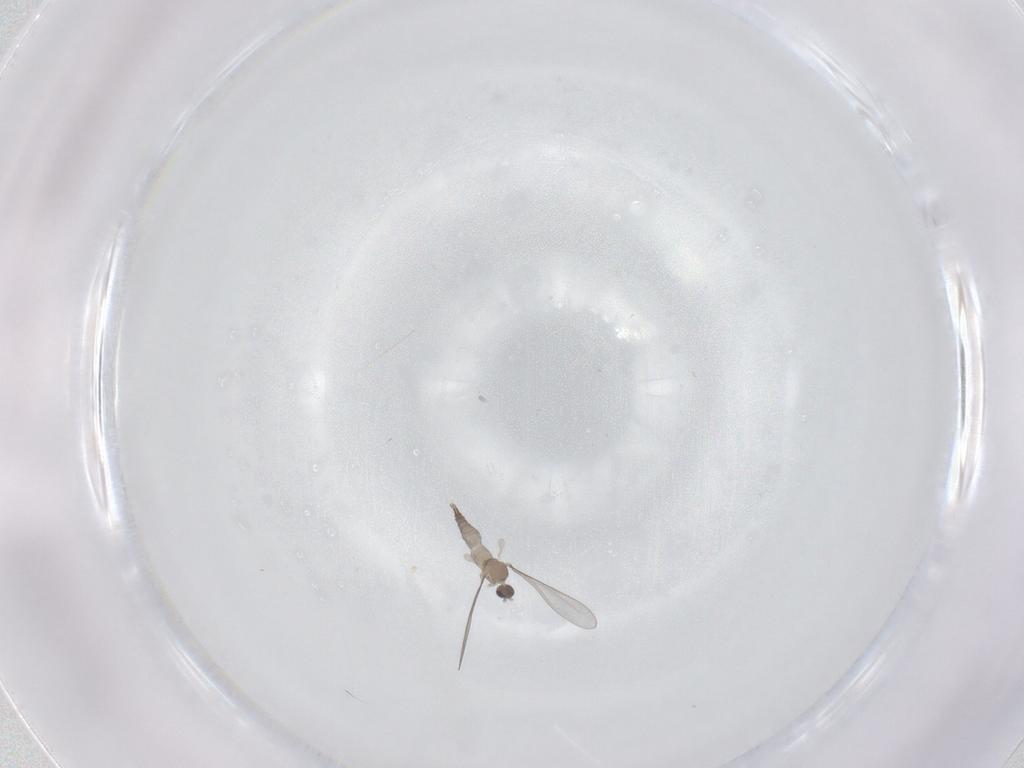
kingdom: Animalia
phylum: Arthropoda
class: Insecta
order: Diptera
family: Cecidomyiidae
